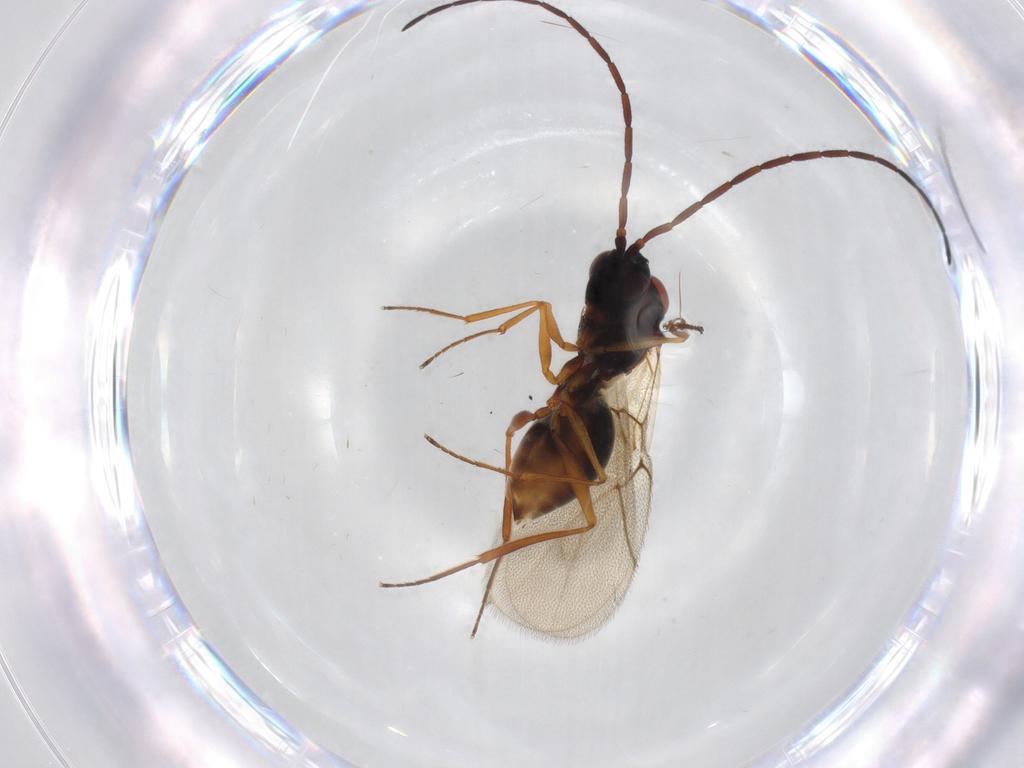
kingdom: Animalia
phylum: Arthropoda
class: Insecta
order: Hymenoptera
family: Figitidae
